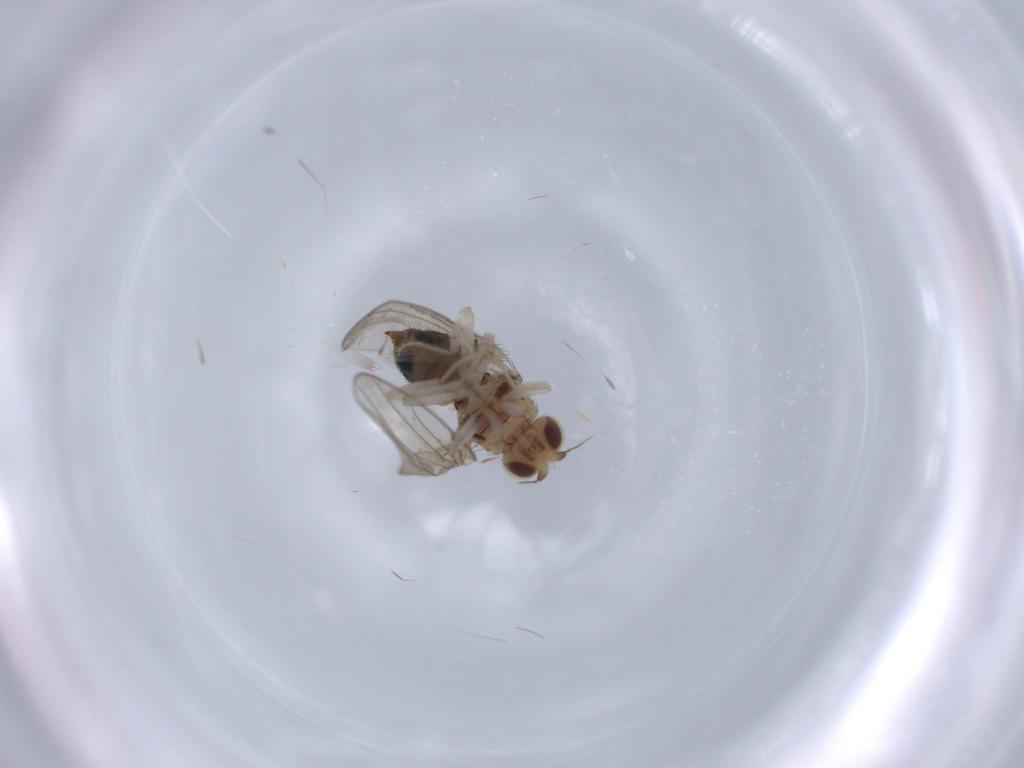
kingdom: Animalia
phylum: Arthropoda
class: Insecta
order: Diptera
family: Chloropidae
